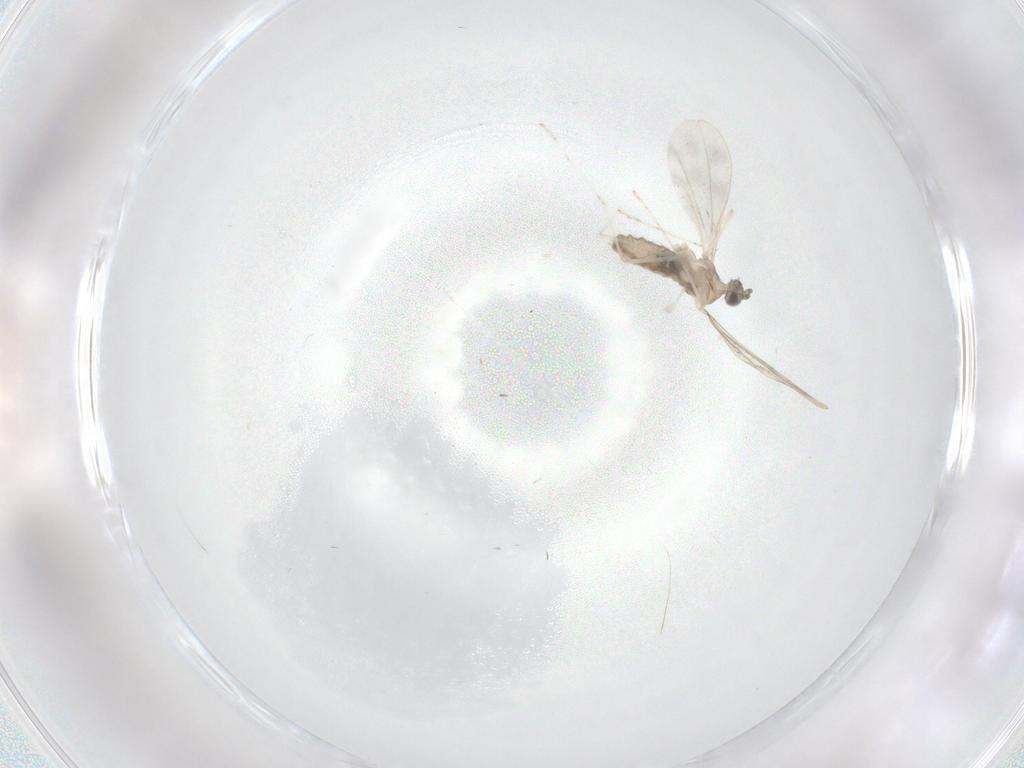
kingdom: Animalia
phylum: Arthropoda
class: Insecta
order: Diptera
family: Cecidomyiidae
